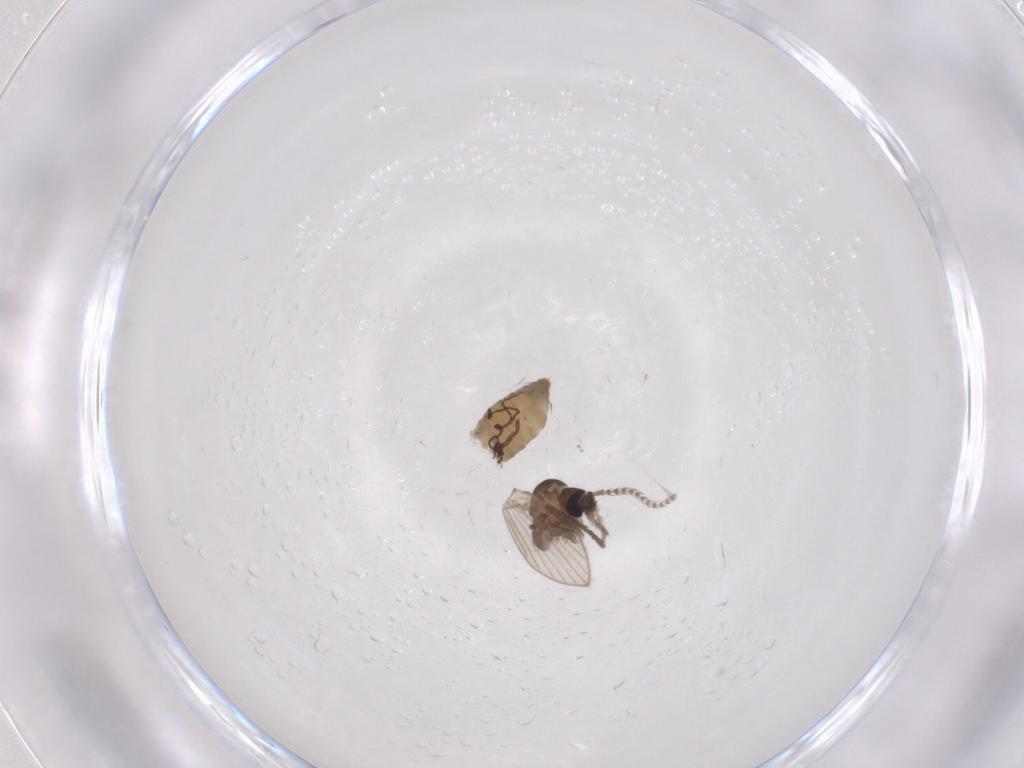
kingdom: Animalia
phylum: Arthropoda
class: Insecta
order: Diptera
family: Psychodidae
